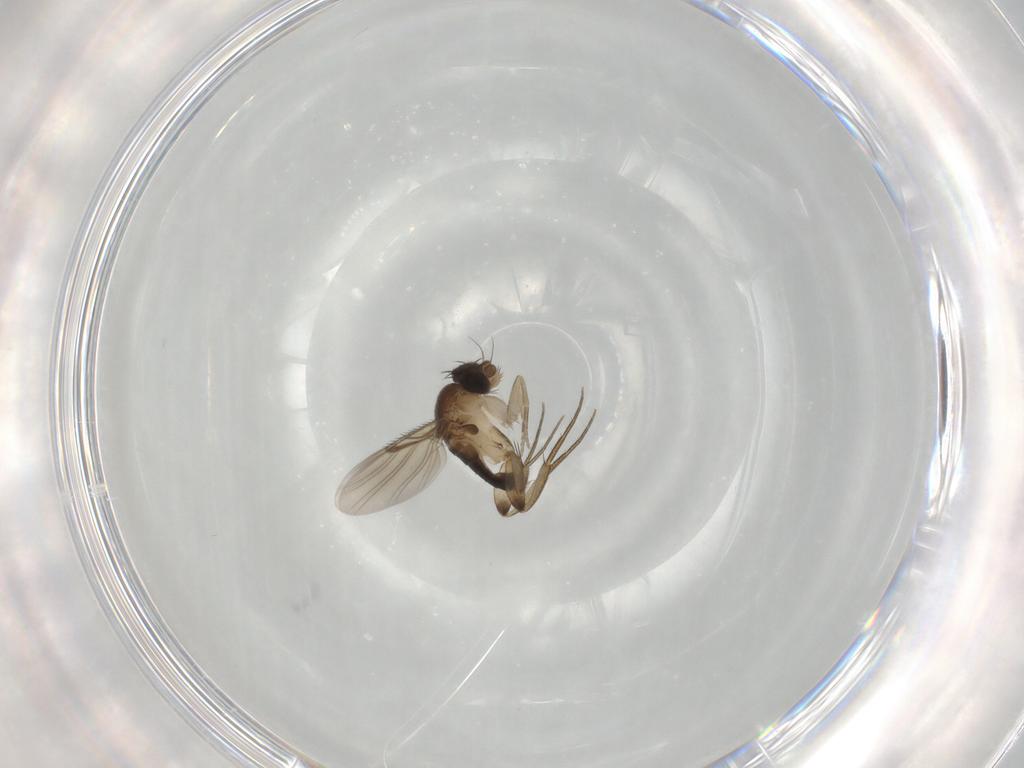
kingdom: Animalia
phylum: Arthropoda
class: Insecta
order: Diptera
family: Phoridae
